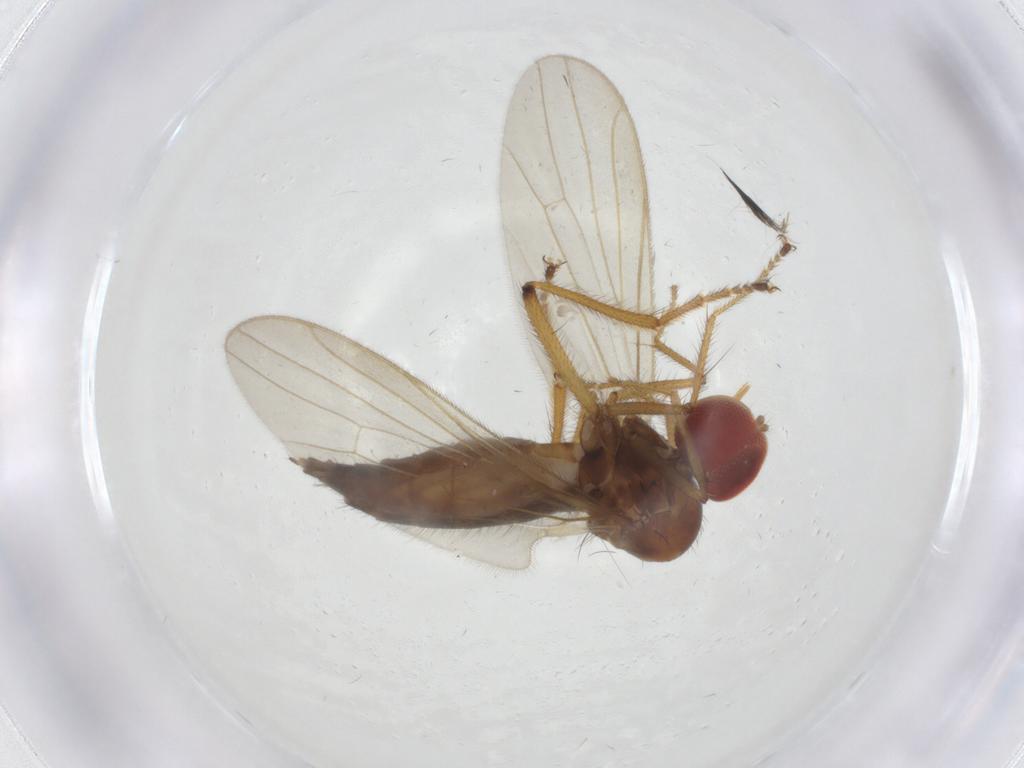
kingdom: Animalia
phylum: Arthropoda
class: Insecta
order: Diptera
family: Hybotidae
